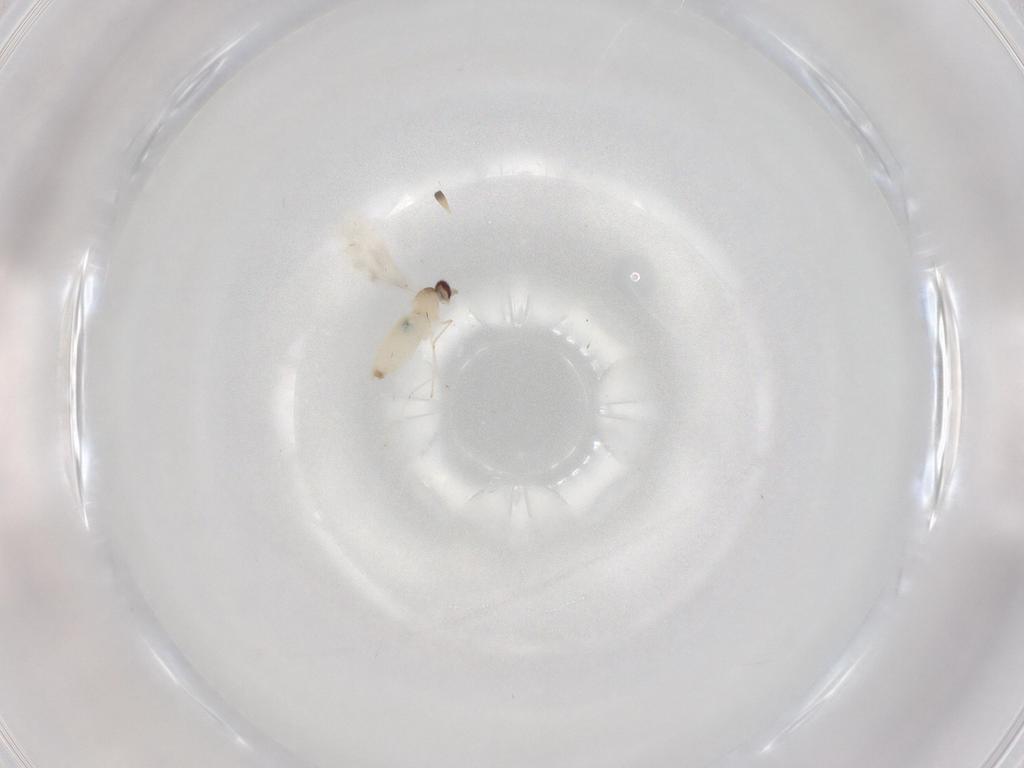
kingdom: Animalia
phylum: Arthropoda
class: Insecta
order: Diptera
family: Cecidomyiidae
